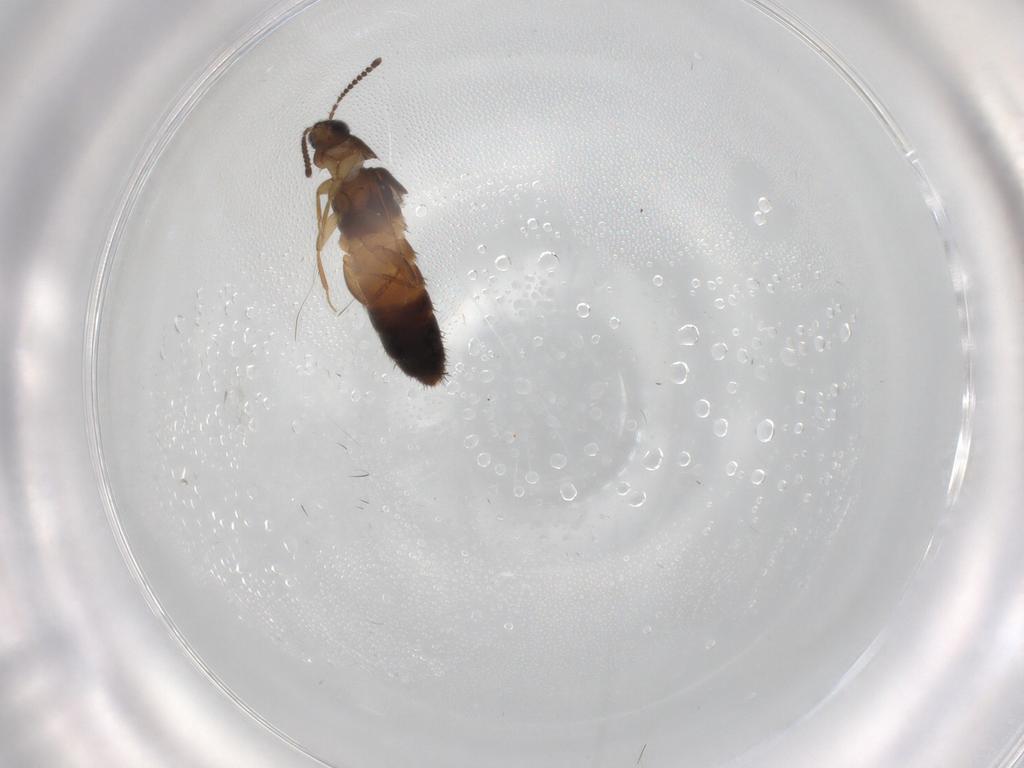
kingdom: Animalia
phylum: Arthropoda
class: Insecta
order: Coleoptera
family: Staphylinidae
